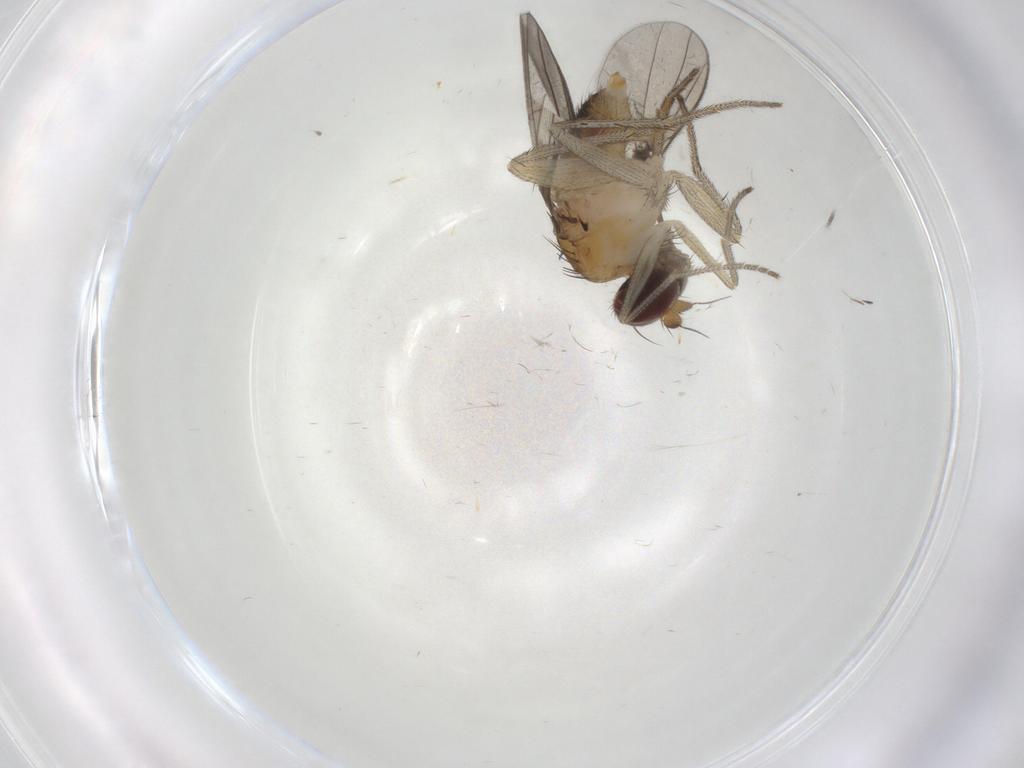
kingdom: Animalia
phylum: Arthropoda
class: Insecta
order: Diptera
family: Dolichopodidae
